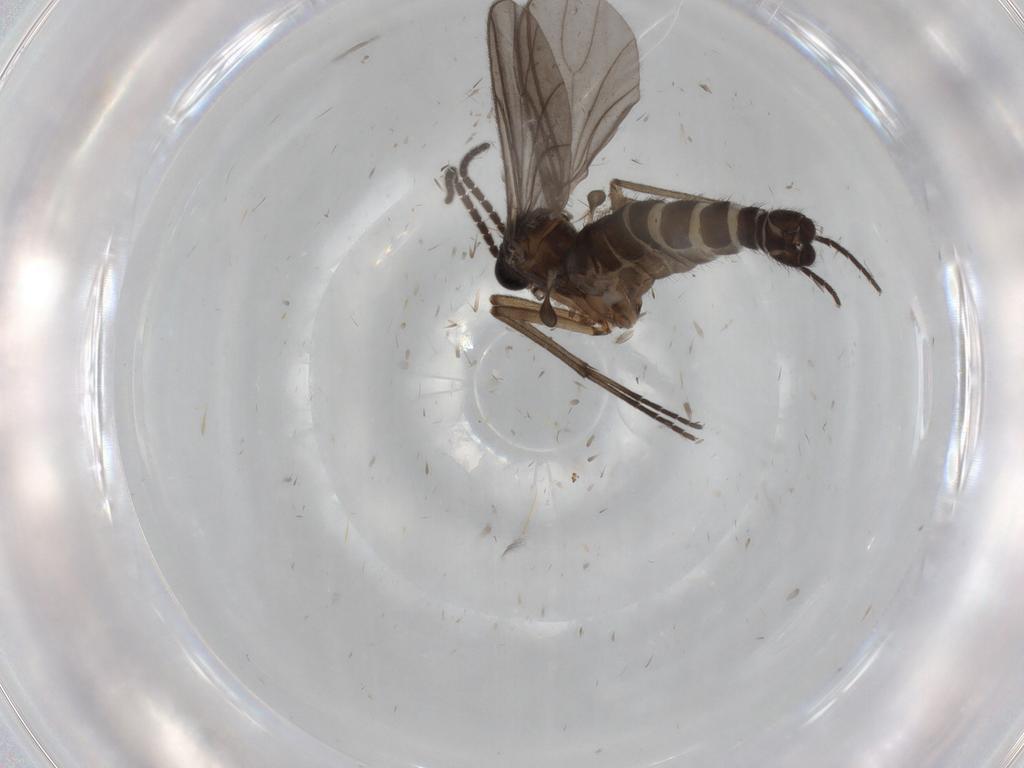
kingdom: Animalia
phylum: Arthropoda
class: Insecta
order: Diptera
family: Sciaridae
